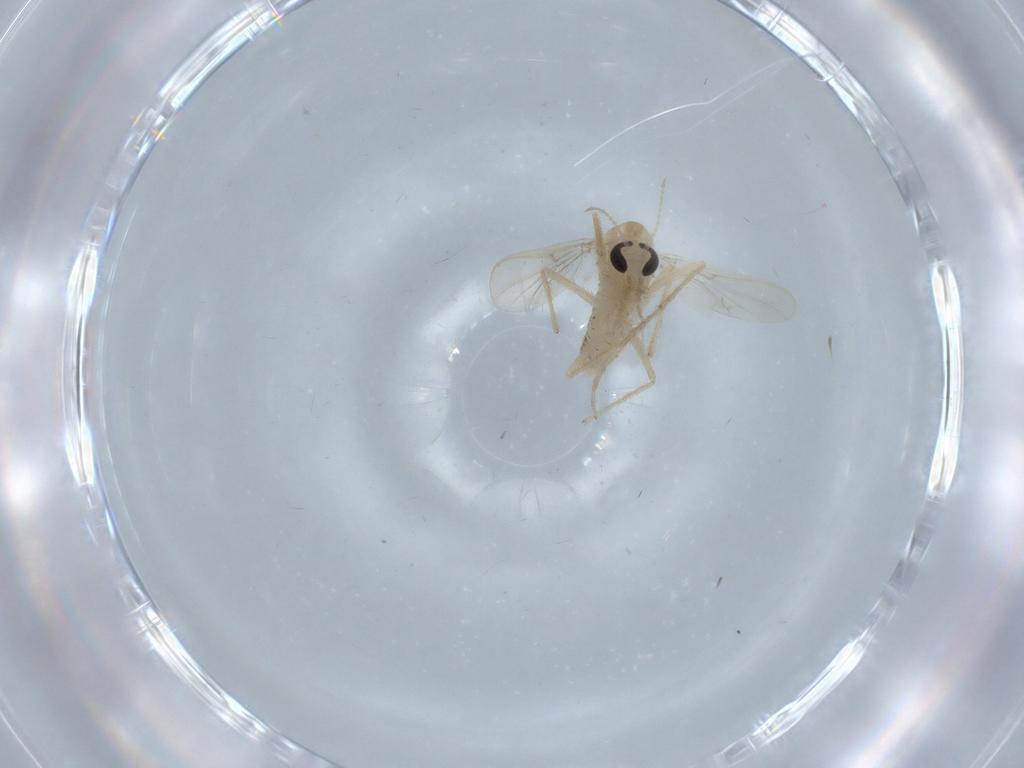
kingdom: Animalia
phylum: Arthropoda
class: Insecta
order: Diptera
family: Chironomidae
